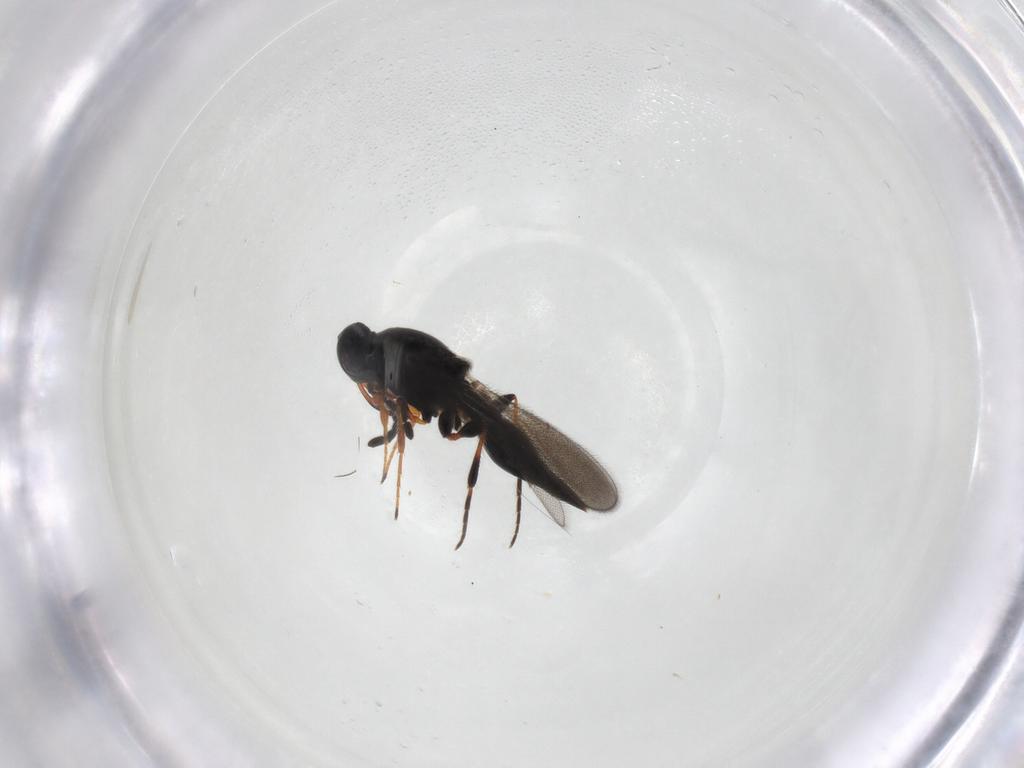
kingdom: Animalia
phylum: Arthropoda
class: Insecta
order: Hymenoptera
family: Platygastridae
